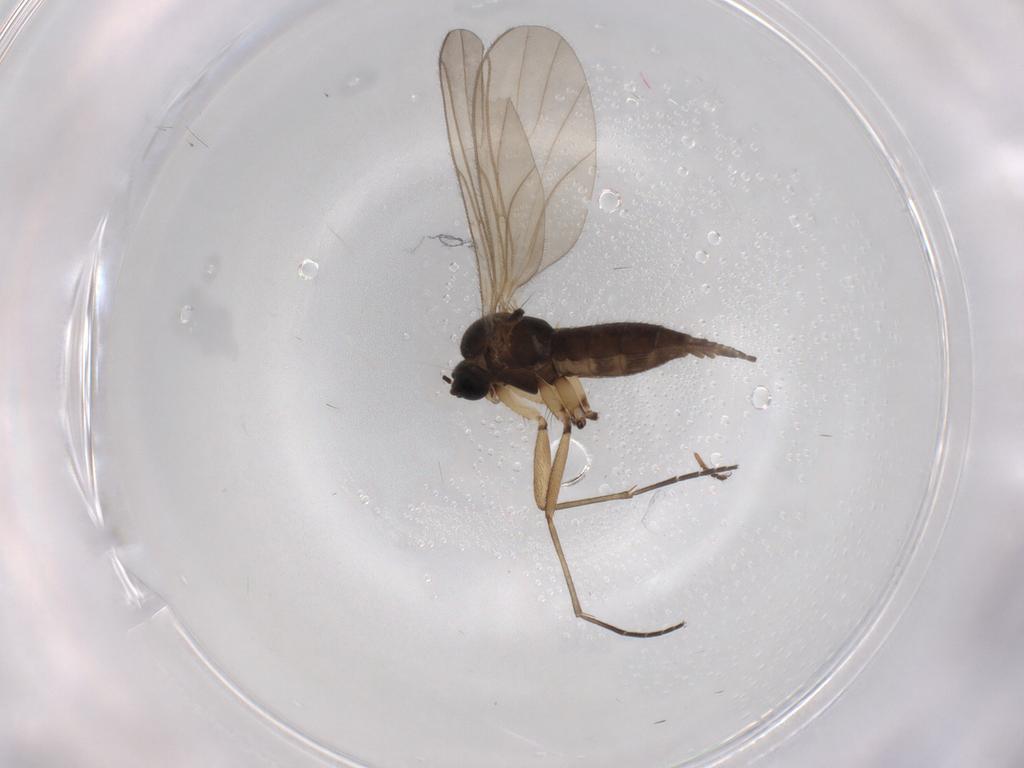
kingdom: Animalia
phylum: Arthropoda
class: Insecta
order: Diptera
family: Sciaridae
